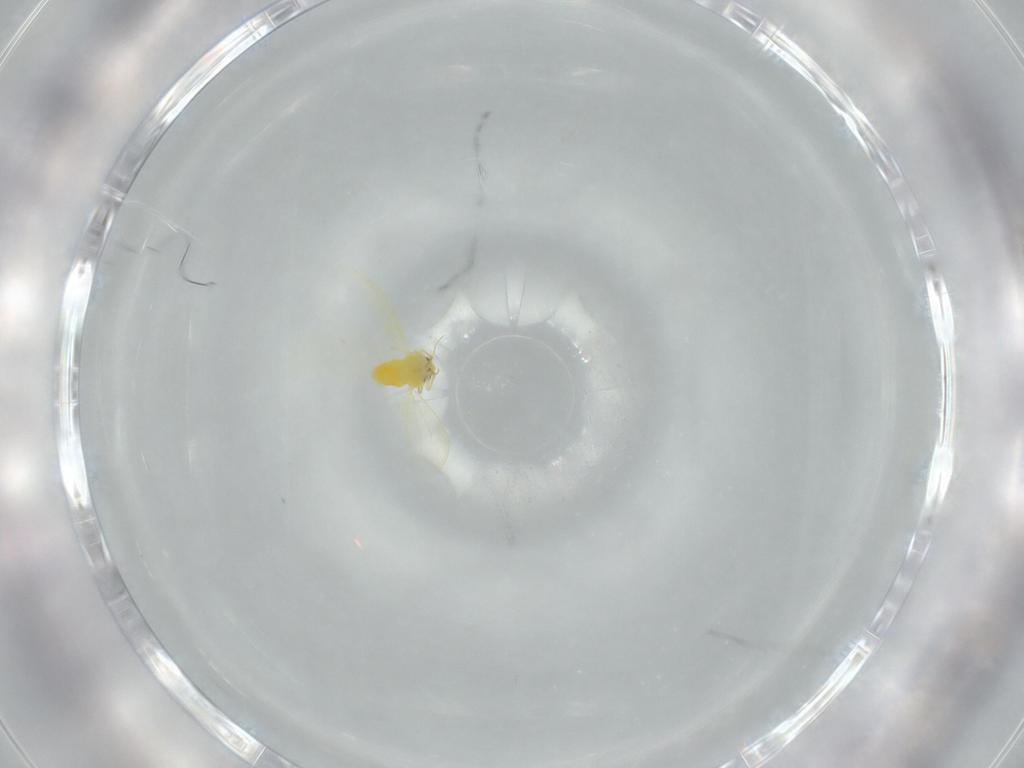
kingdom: Animalia
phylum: Arthropoda
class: Insecta
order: Hemiptera
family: Aleyrodidae
